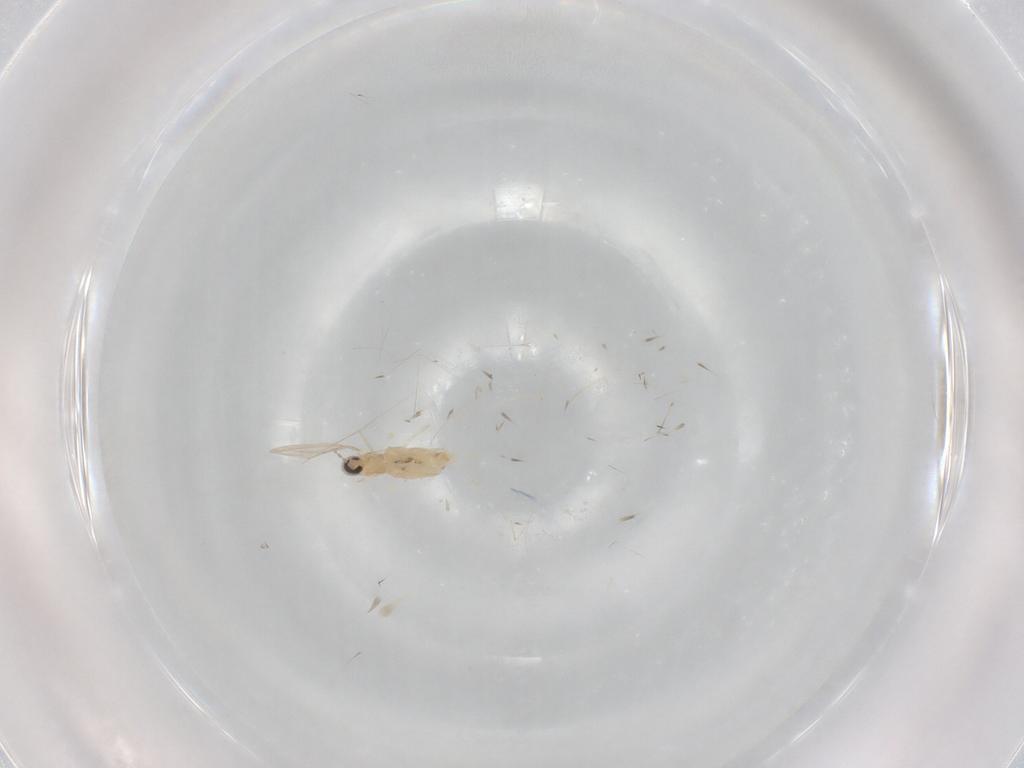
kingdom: Animalia
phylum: Arthropoda
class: Insecta
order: Diptera
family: Cecidomyiidae
